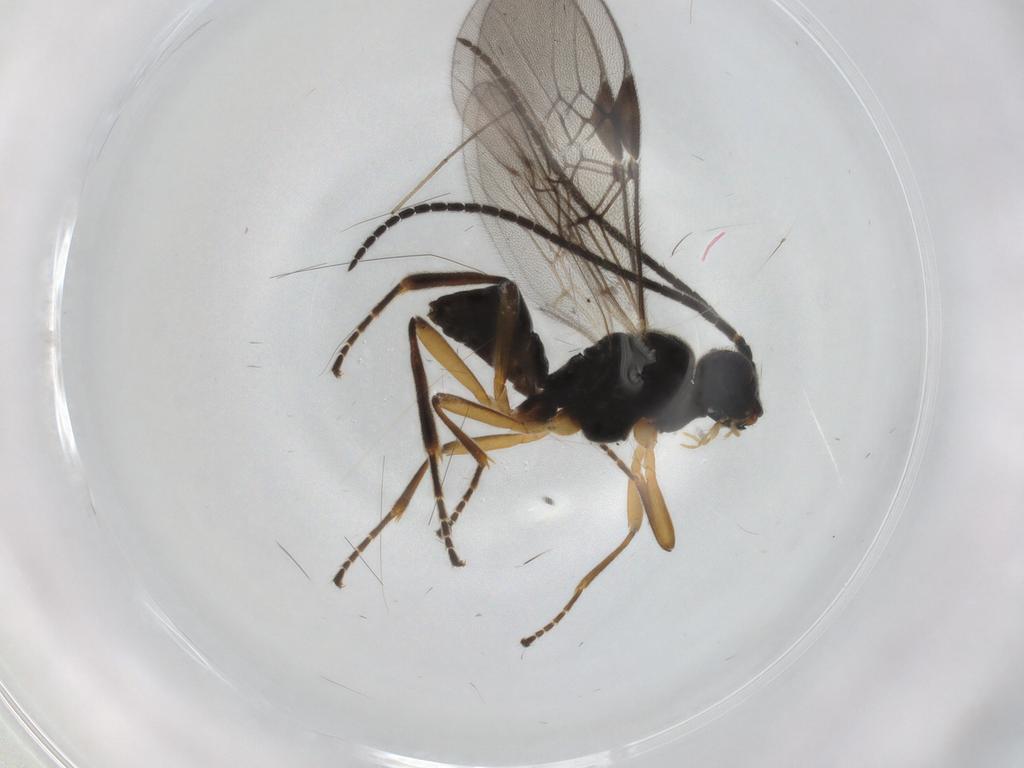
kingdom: Animalia
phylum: Arthropoda
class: Insecta
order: Hymenoptera
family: Braconidae
